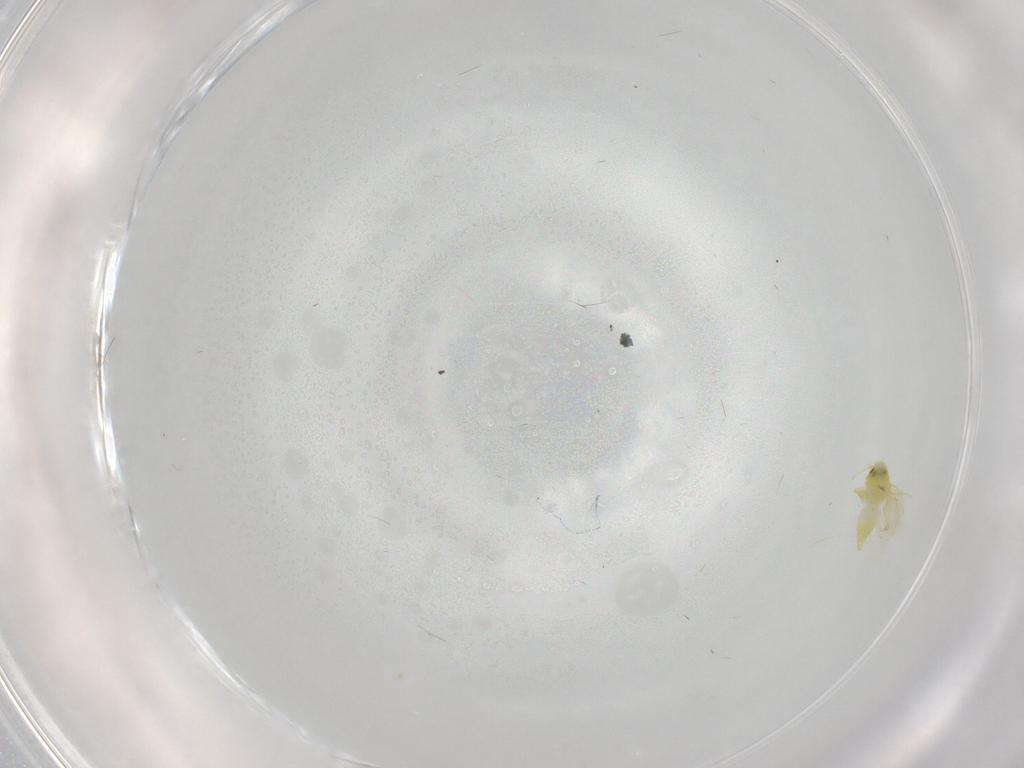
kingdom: Animalia
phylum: Arthropoda
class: Insecta
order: Hemiptera
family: Aleyrodidae
